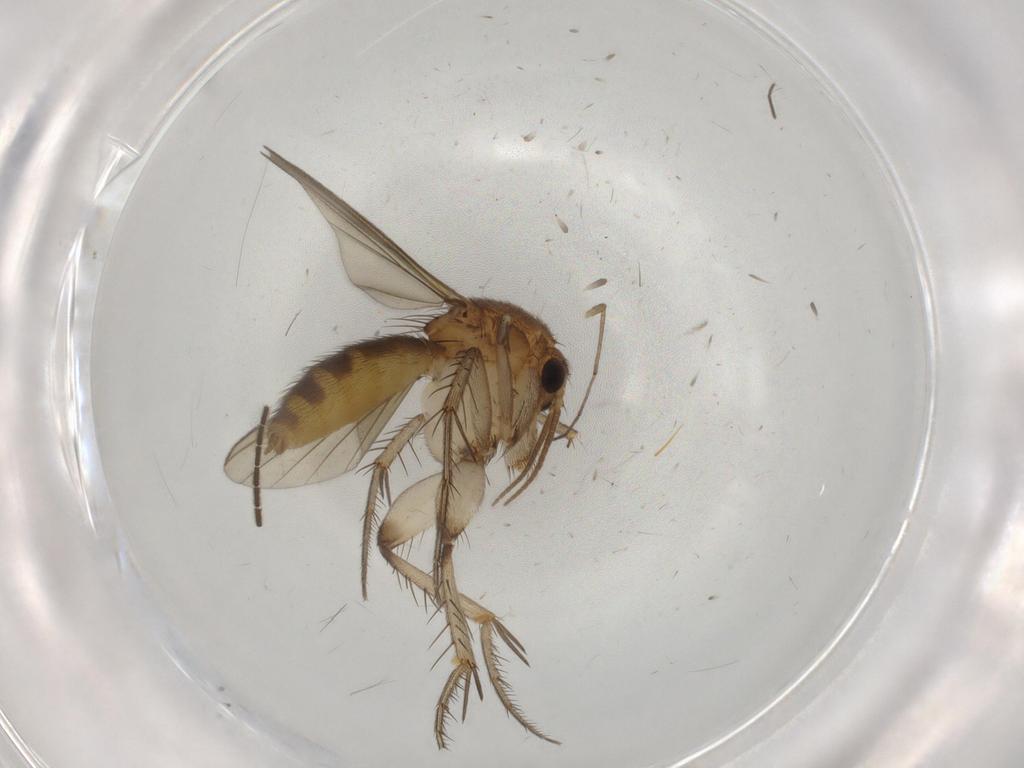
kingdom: Animalia
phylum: Arthropoda
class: Insecta
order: Diptera
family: Sciaridae
